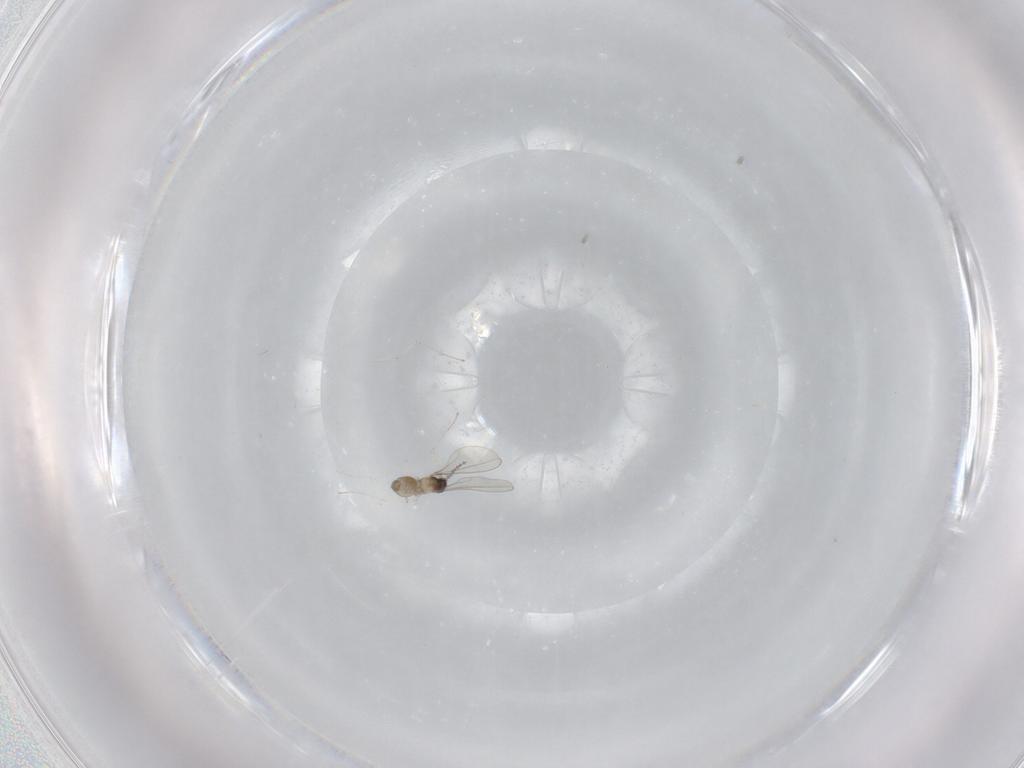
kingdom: Animalia
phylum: Arthropoda
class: Insecta
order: Diptera
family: Cecidomyiidae
